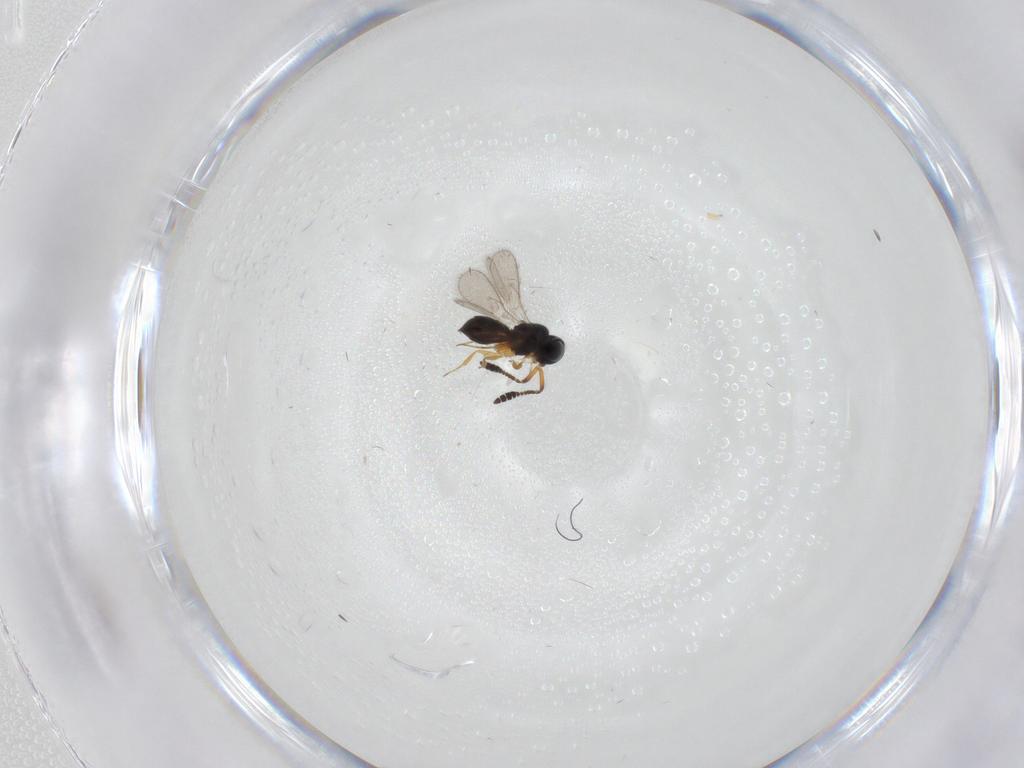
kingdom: Animalia
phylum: Arthropoda
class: Insecta
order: Hymenoptera
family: Scelionidae
